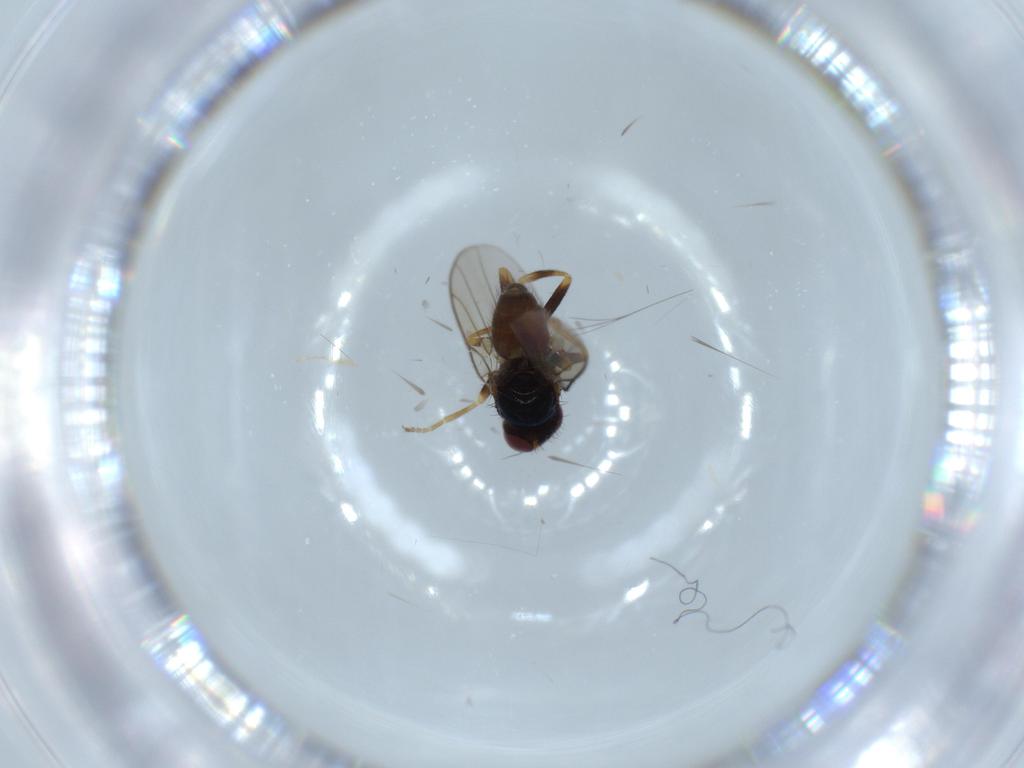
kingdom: Animalia
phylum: Arthropoda
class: Insecta
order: Diptera
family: Chloropidae
